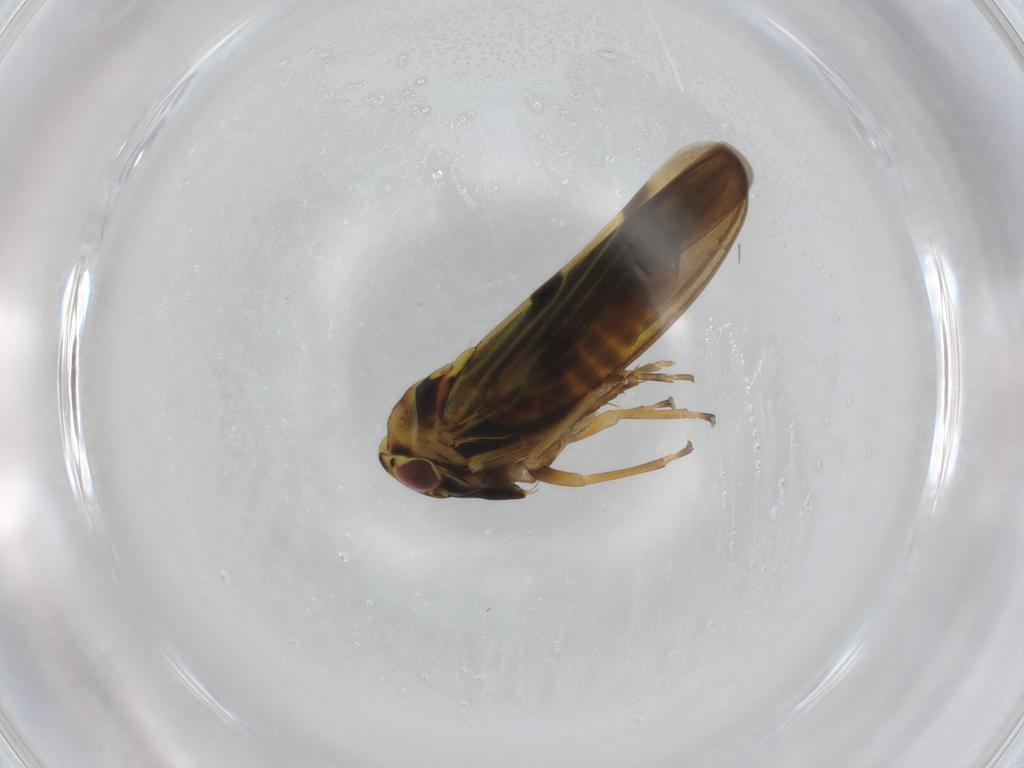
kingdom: Animalia
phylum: Arthropoda
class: Insecta
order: Hemiptera
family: Cicadellidae
